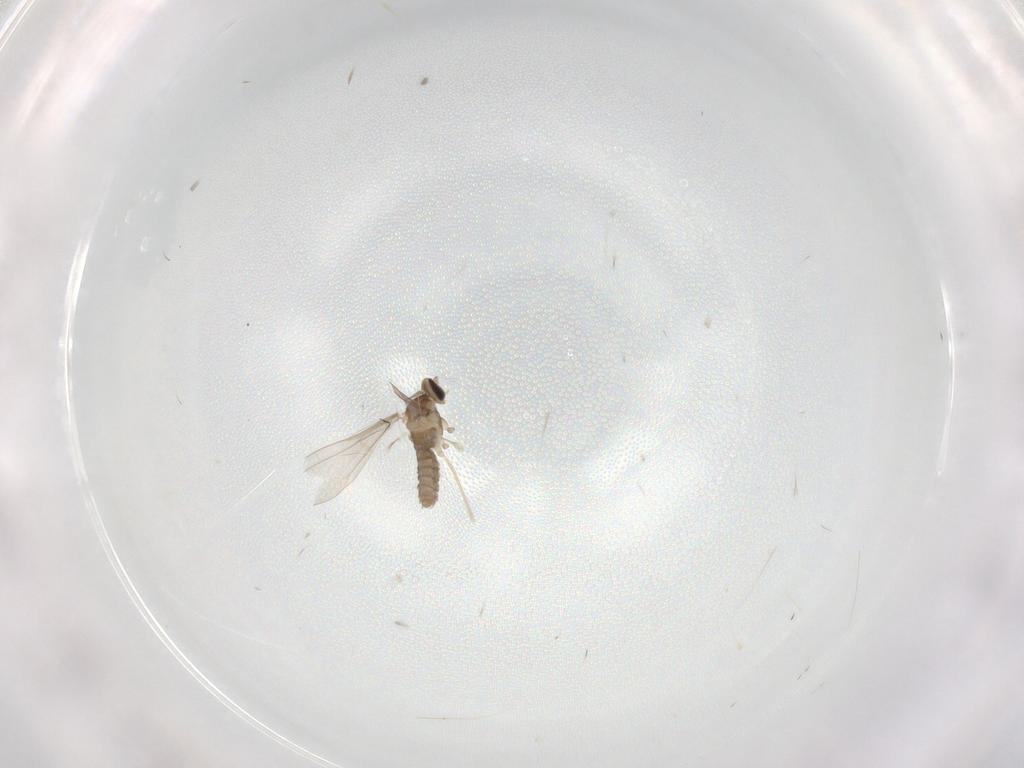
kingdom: Animalia
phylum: Arthropoda
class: Insecta
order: Diptera
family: Cecidomyiidae
